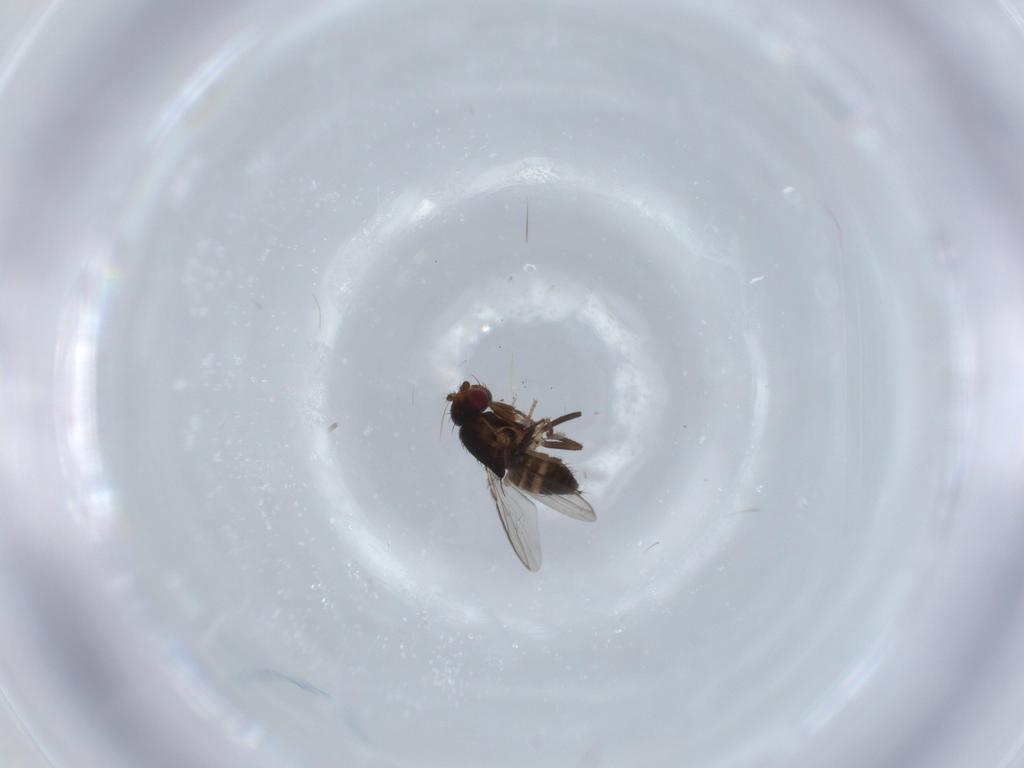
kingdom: Animalia
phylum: Arthropoda
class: Insecta
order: Diptera
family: Sphaeroceridae
